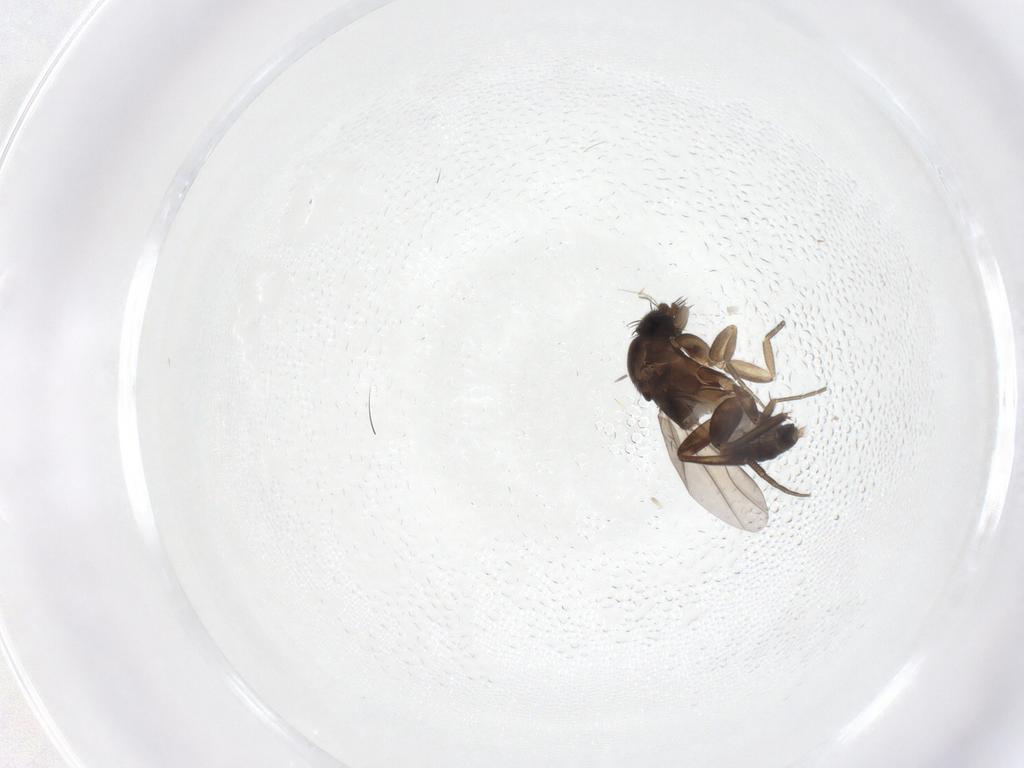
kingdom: Animalia
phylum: Arthropoda
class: Insecta
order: Diptera
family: Phoridae
